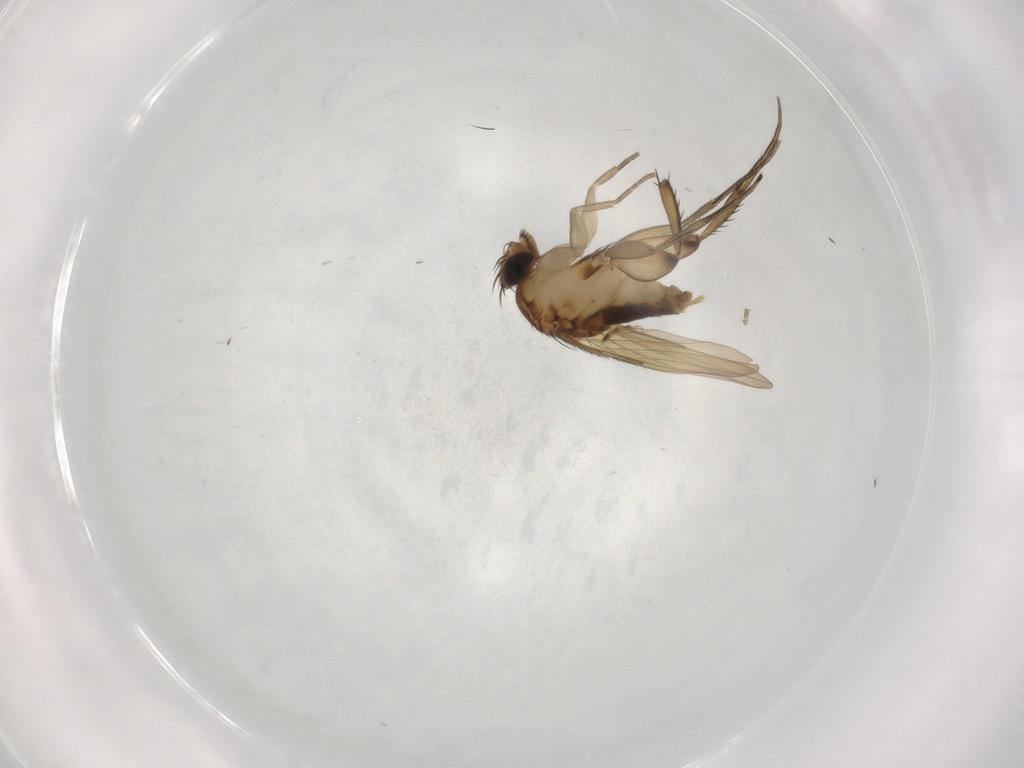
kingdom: Animalia
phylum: Arthropoda
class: Insecta
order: Diptera
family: Phoridae
